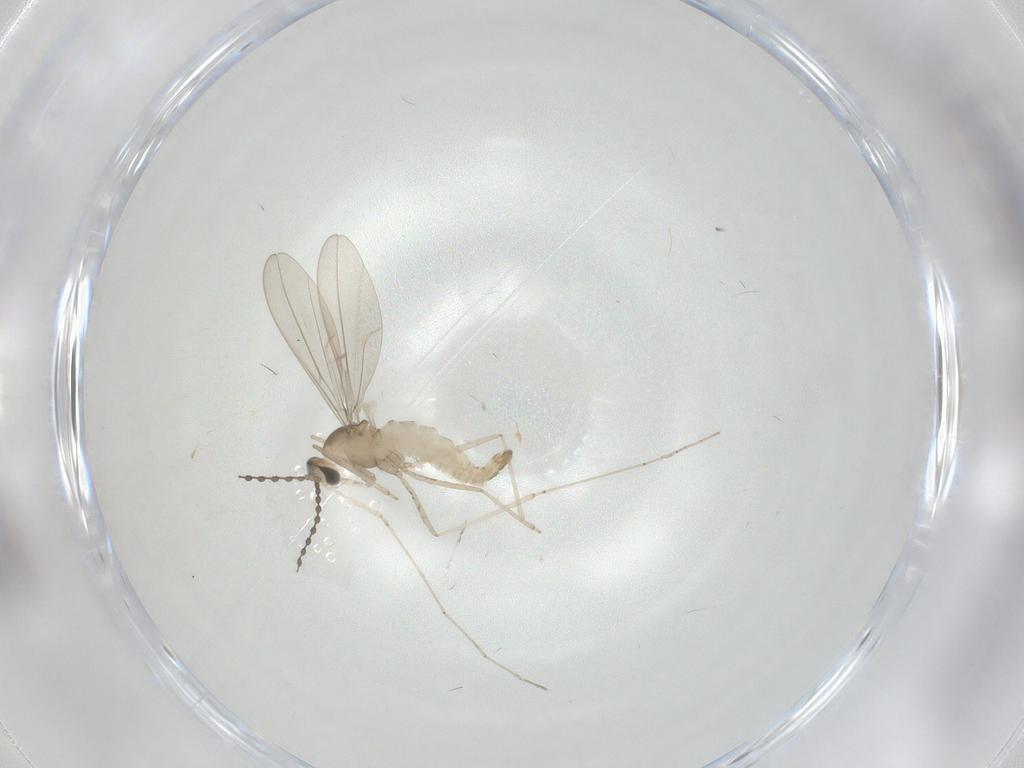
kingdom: Animalia
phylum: Arthropoda
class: Insecta
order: Diptera
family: Cecidomyiidae
